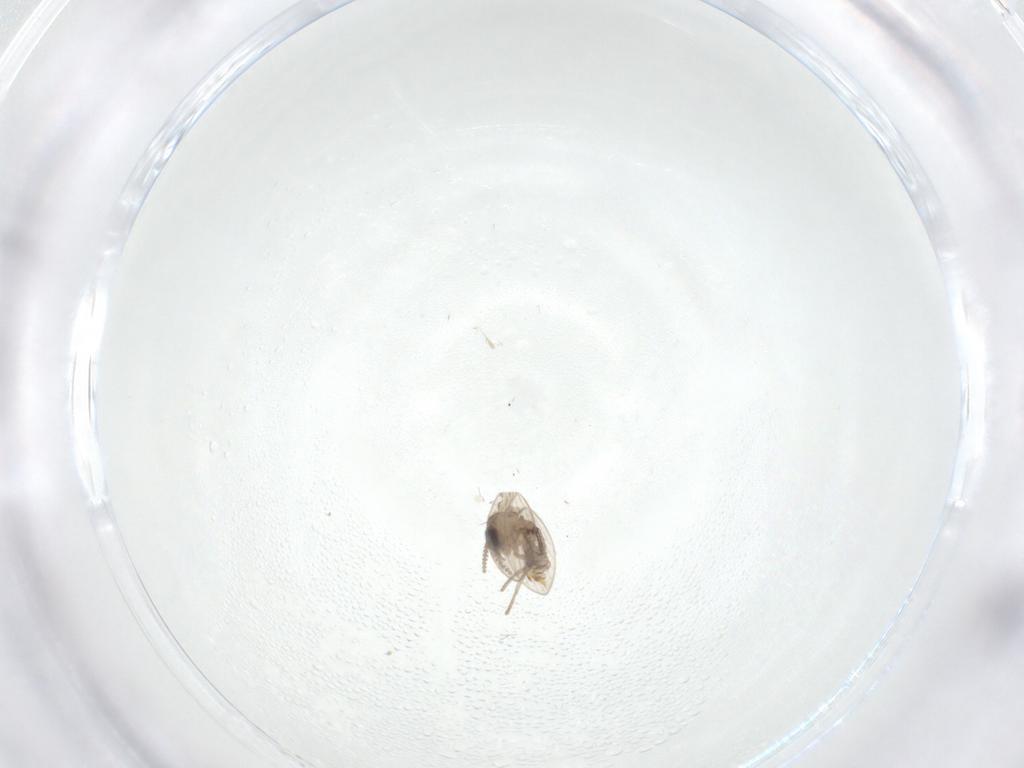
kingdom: Animalia
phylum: Arthropoda
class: Insecta
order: Diptera
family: Psychodidae
